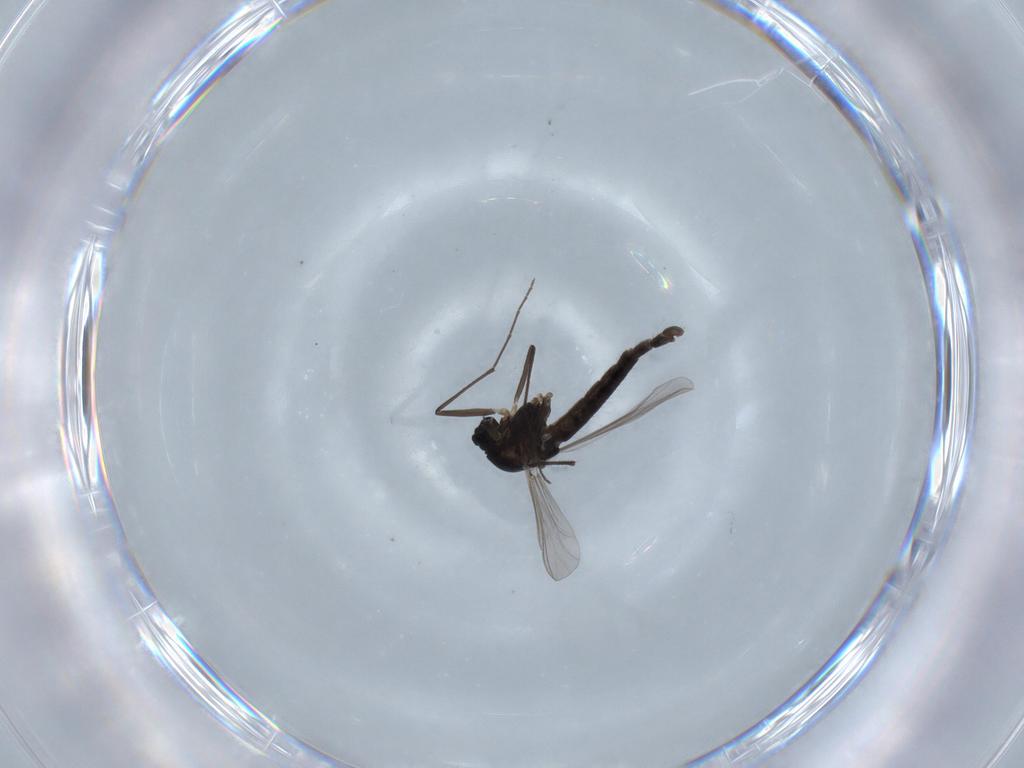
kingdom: Animalia
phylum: Arthropoda
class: Insecta
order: Diptera
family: Chironomidae
